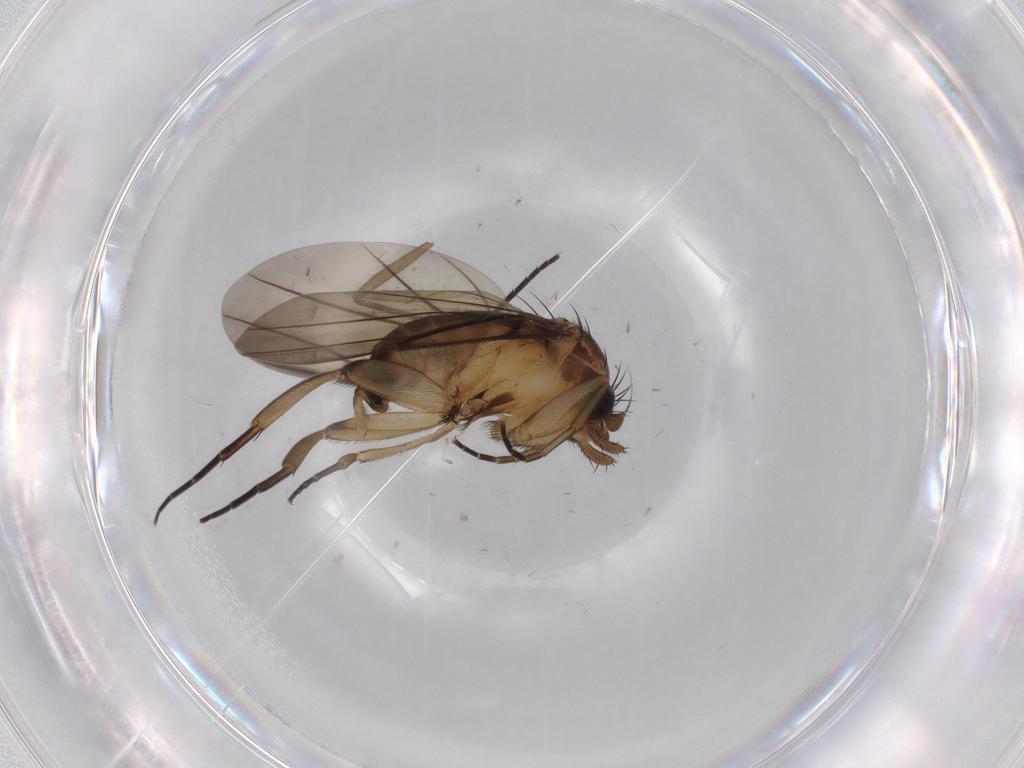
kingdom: Animalia
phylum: Arthropoda
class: Insecta
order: Diptera
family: Sciaridae
